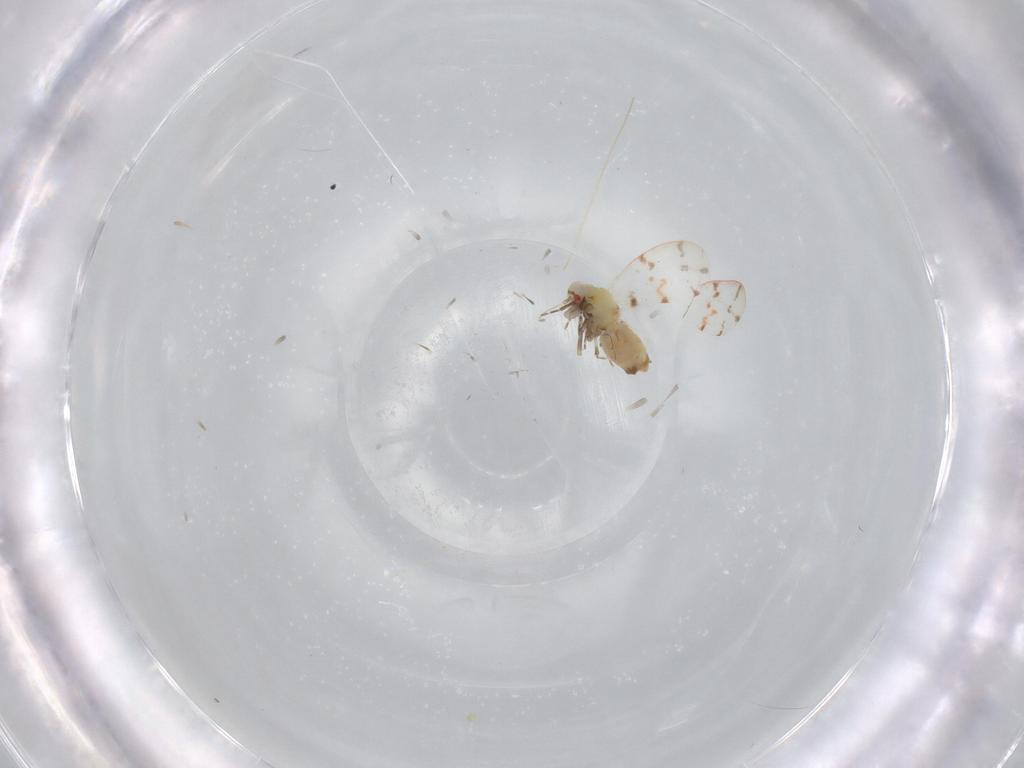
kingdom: Animalia
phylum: Arthropoda
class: Insecta
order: Hemiptera
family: Aleyrodidae
